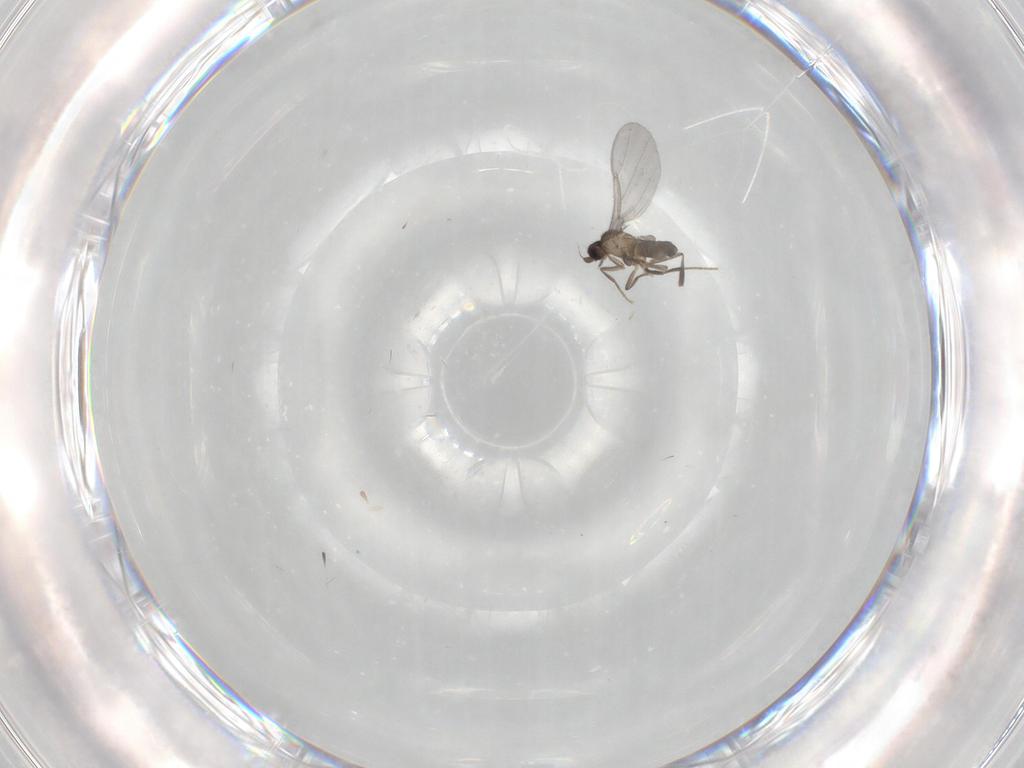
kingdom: Animalia
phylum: Arthropoda
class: Insecta
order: Diptera
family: Phoridae
